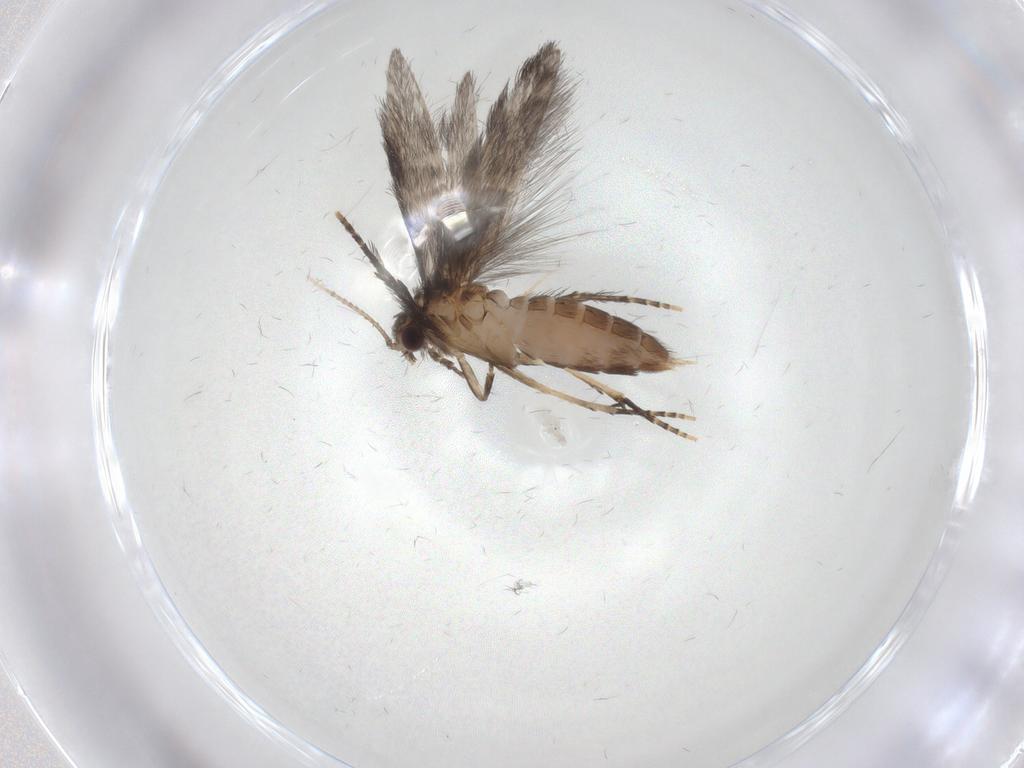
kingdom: Animalia
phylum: Arthropoda
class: Insecta
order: Trichoptera
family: Hydroptilidae
